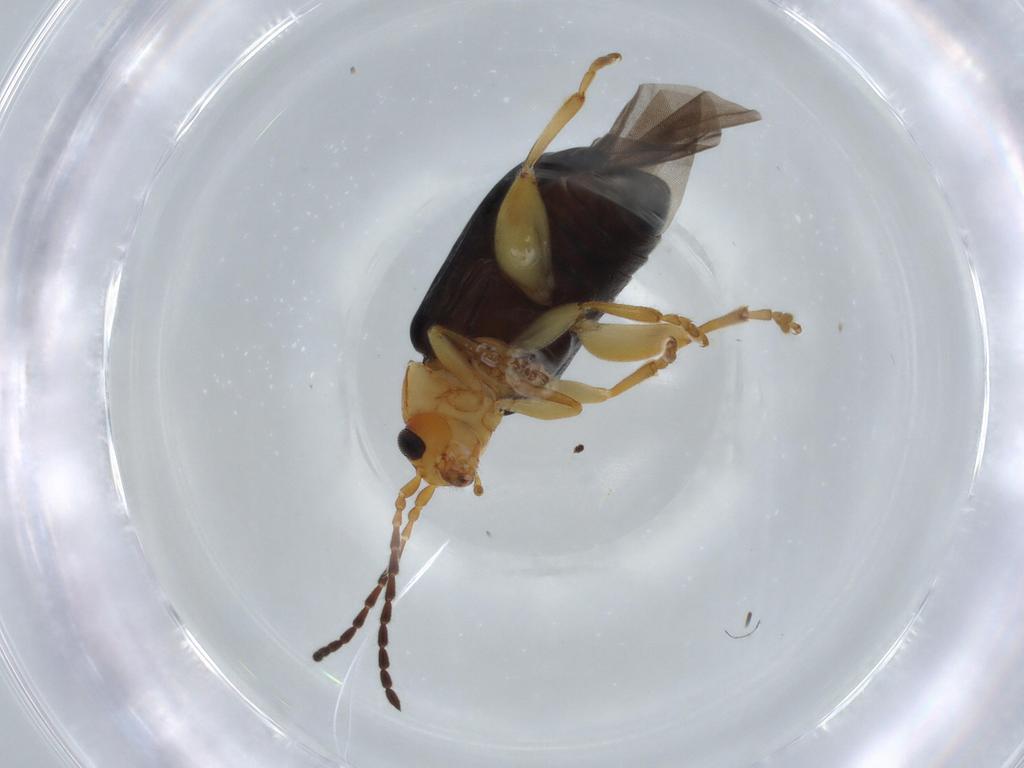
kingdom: Animalia
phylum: Arthropoda
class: Insecta
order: Coleoptera
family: Chrysomelidae
